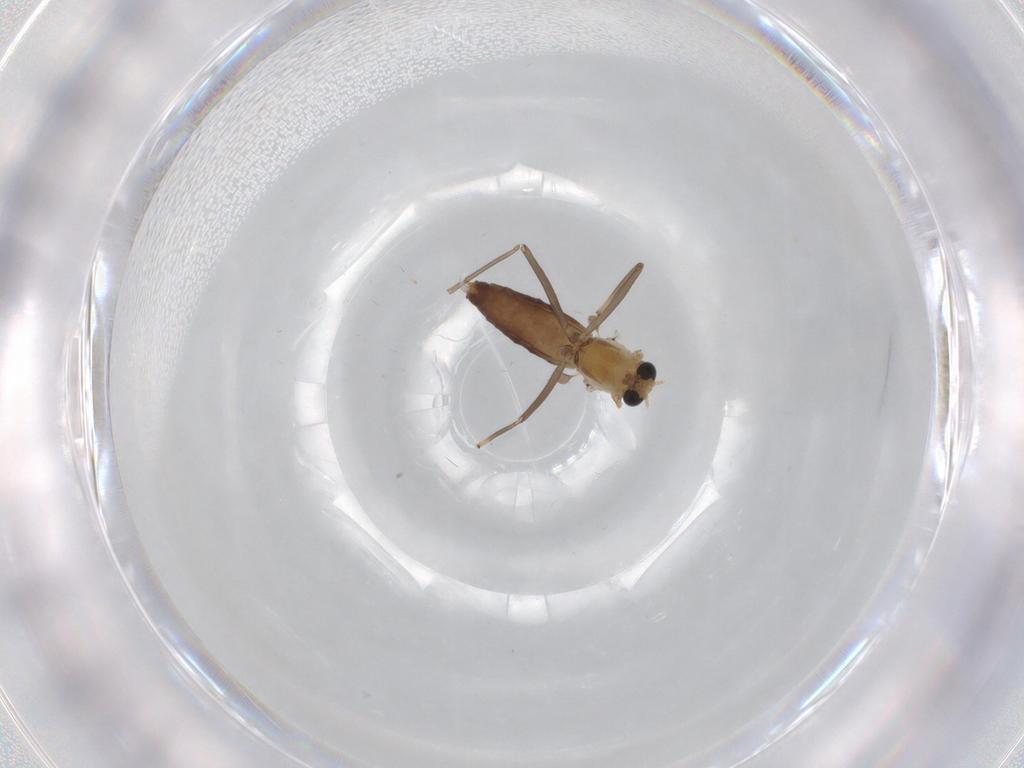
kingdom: Animalia
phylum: Arthropoda
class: Insecta
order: Diptera
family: Chironomidae
